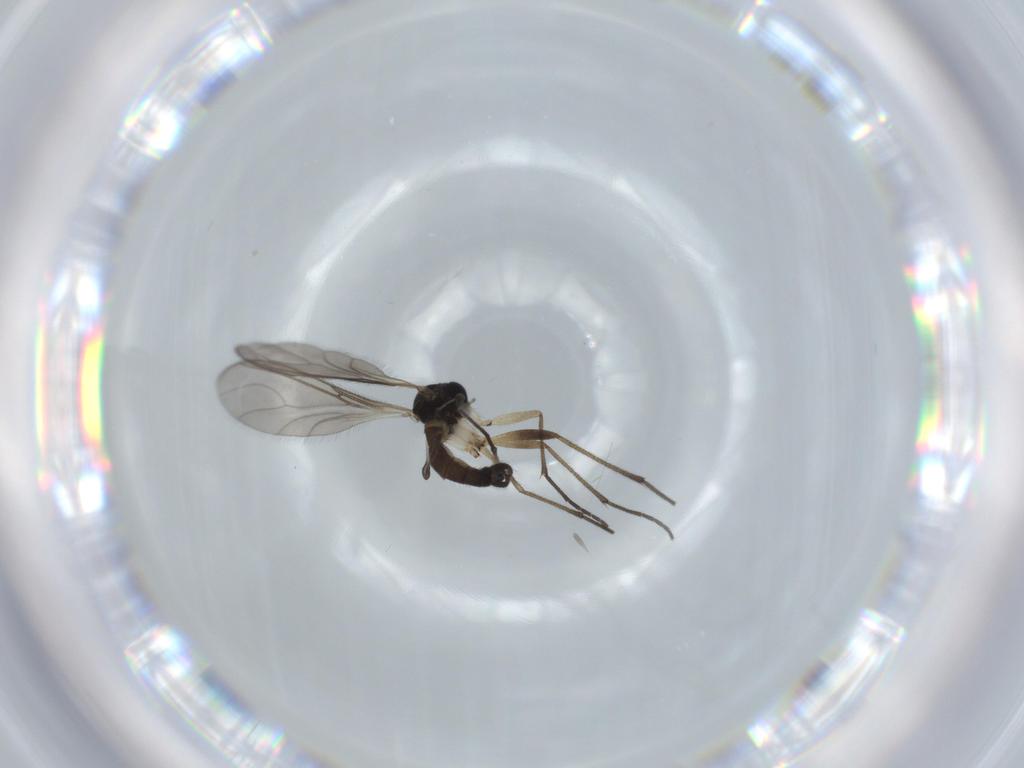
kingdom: Animalia
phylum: Arthropoda
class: Insecta
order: Diptera
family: Sciaridae
